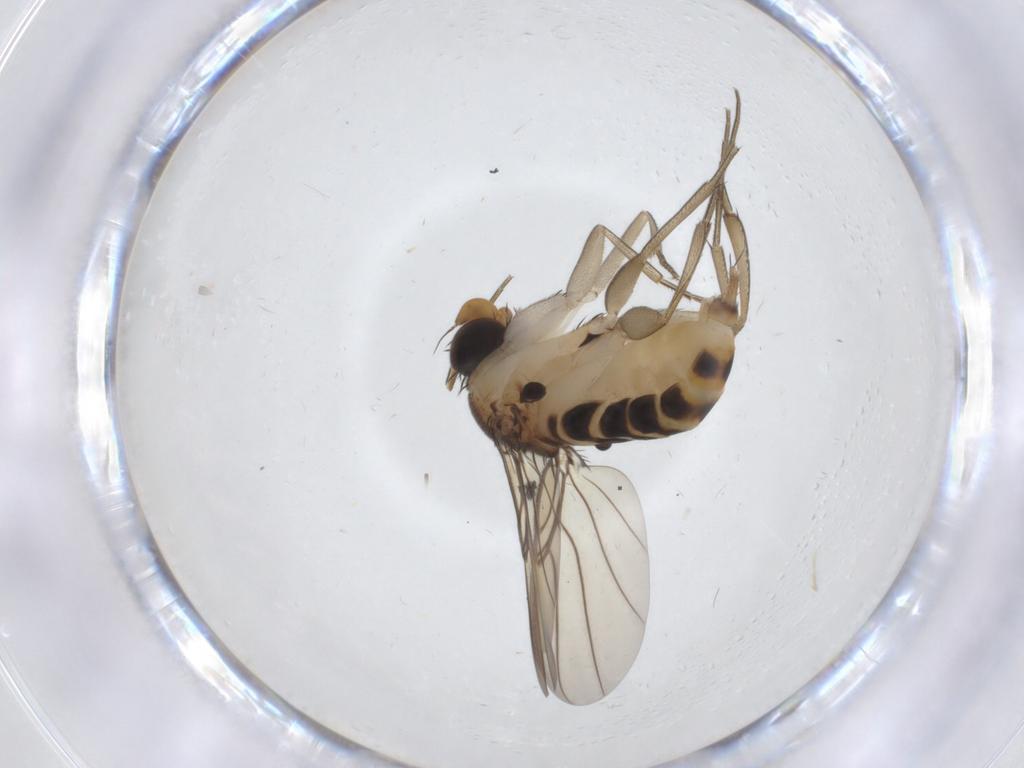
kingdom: Animalia
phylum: Arthropoda
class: Insecta
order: Diptera
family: Phoridae
